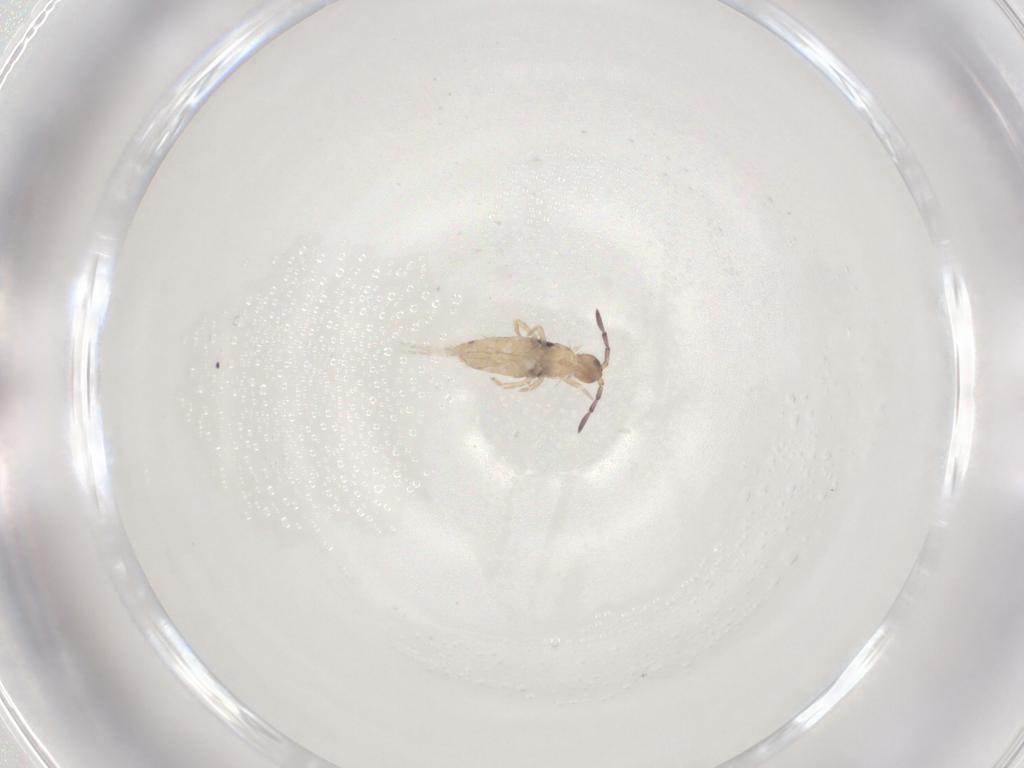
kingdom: Animalia
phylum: Arthropoda
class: Collembola
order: Entomobryomorpha
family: Entomobryidae
